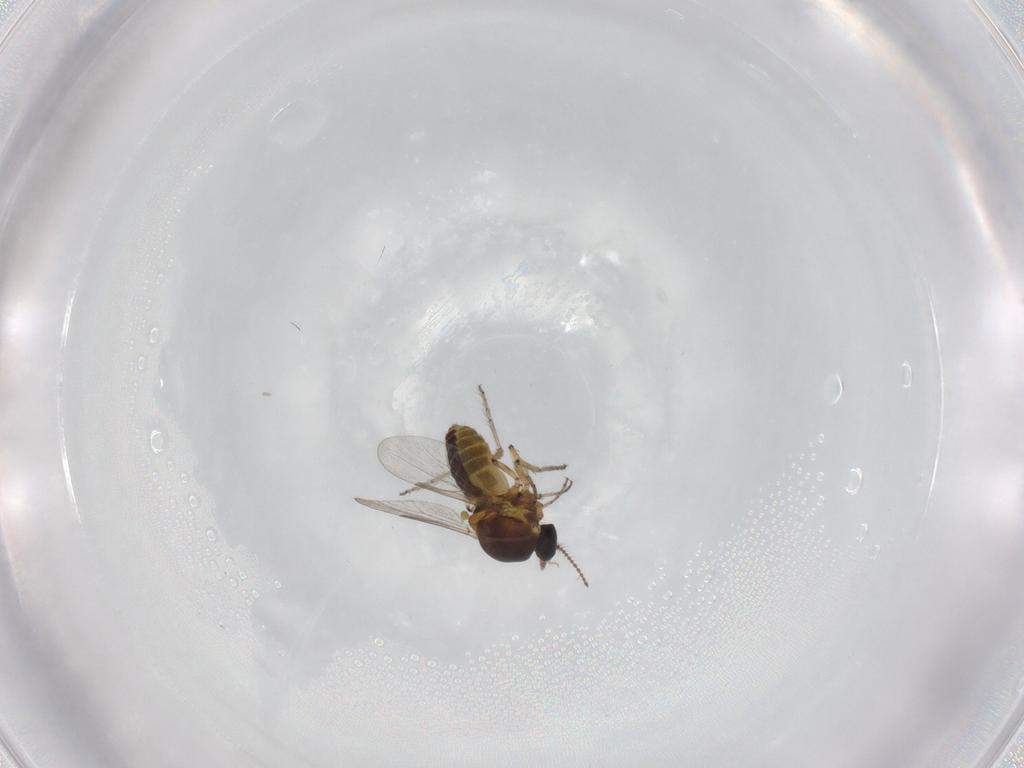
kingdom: Animalia
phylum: Arthropoda
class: Insecta
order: Diptera
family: Ceratopogonidae
